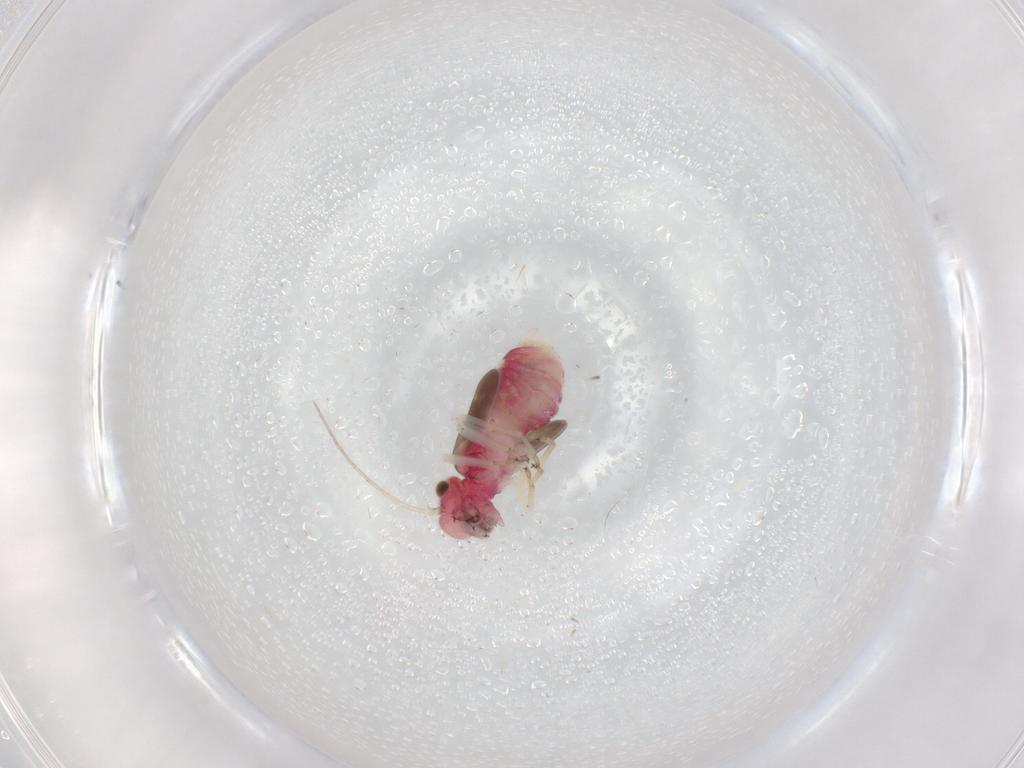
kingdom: Animalia
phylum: Arthropoda
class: Insecta
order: Psocodea
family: Caeciliusidae
